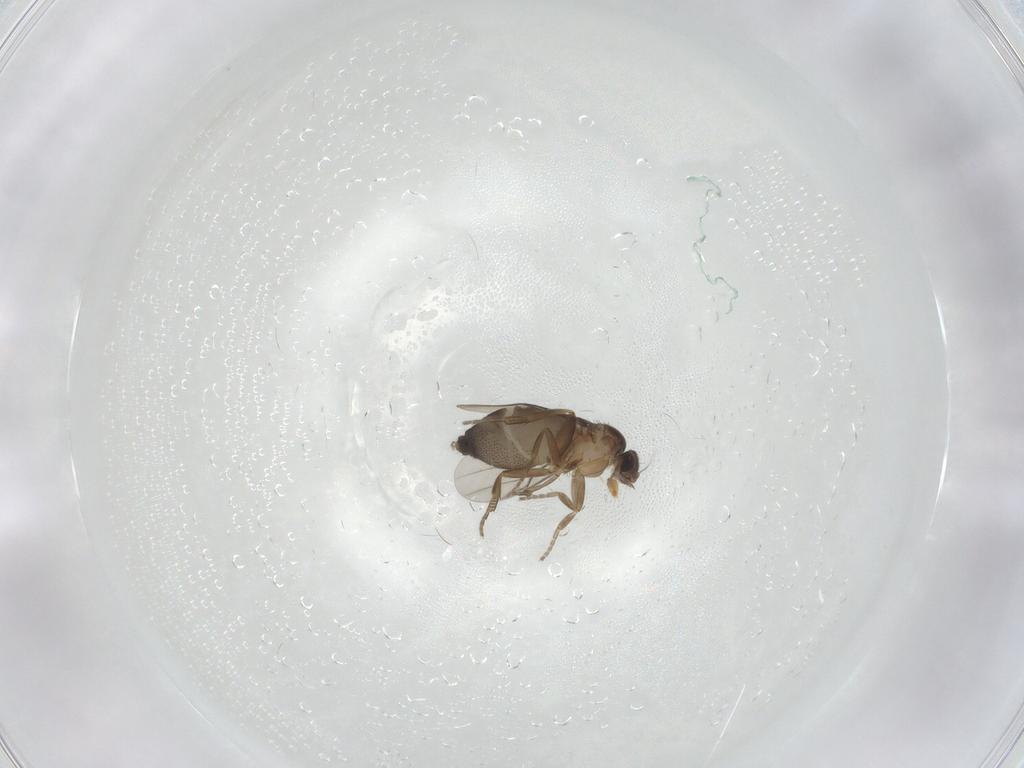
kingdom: Animalia
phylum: Arthropoda
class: Insecta
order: Diptera
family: Phoridae
